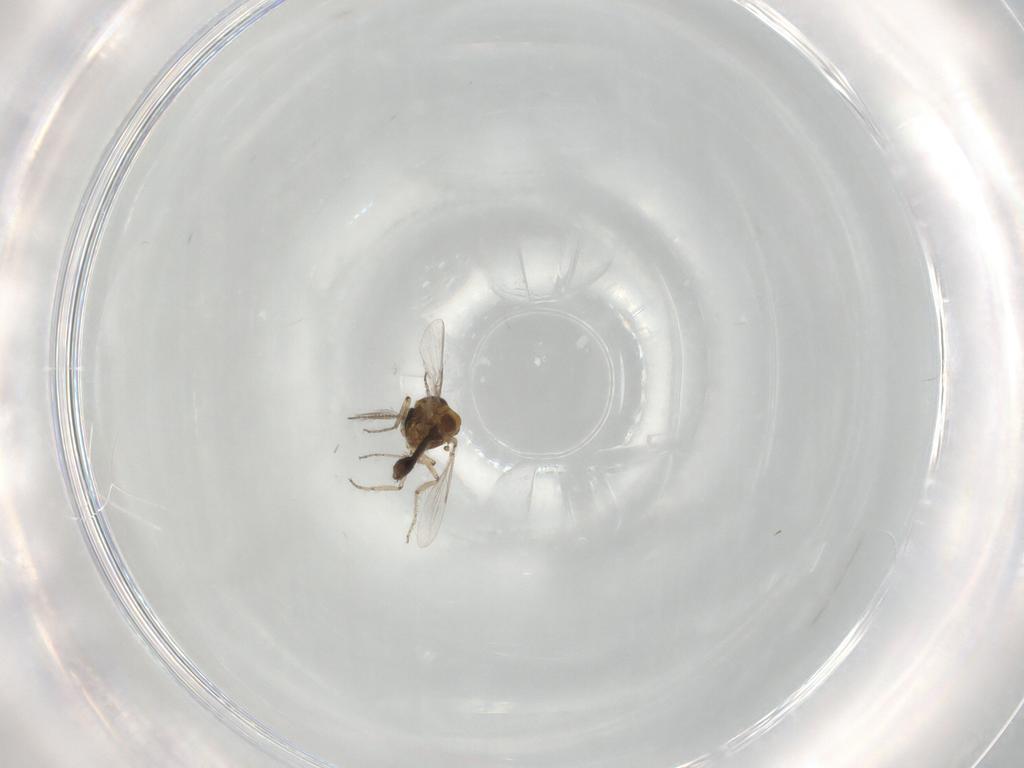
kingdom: Animalia
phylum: Arthropoda
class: Insecta
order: Diptera
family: Ceratopogonidae
